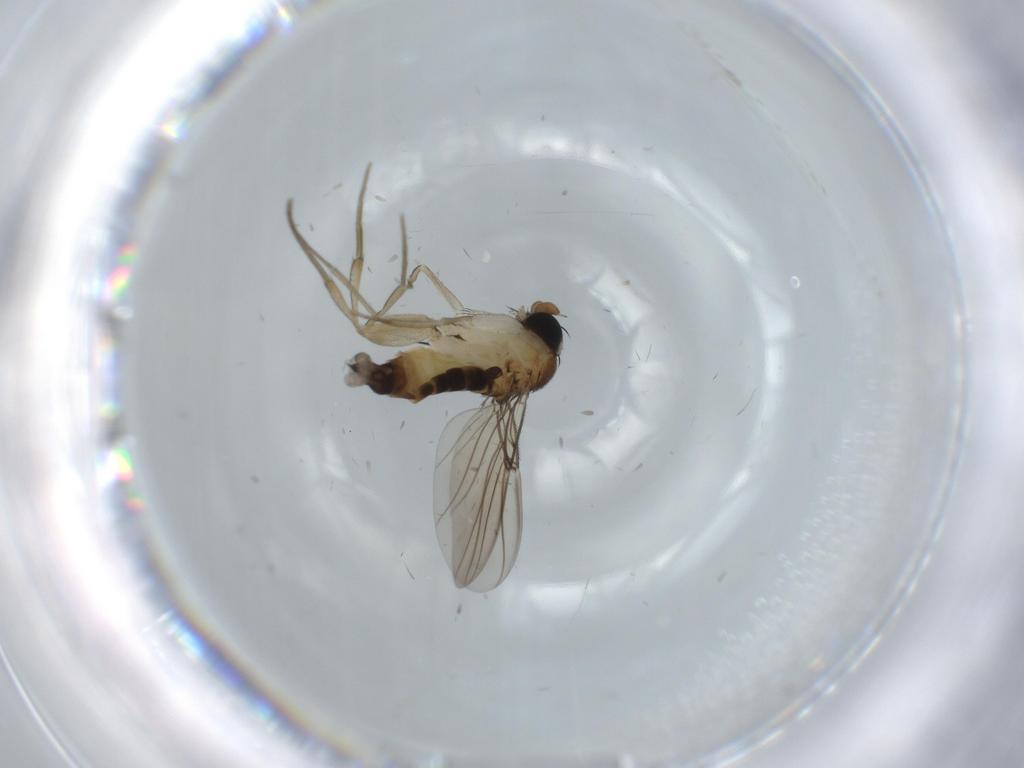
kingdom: Animalia
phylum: Arthropoda
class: Insecta
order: Diptera
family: Phoridae
